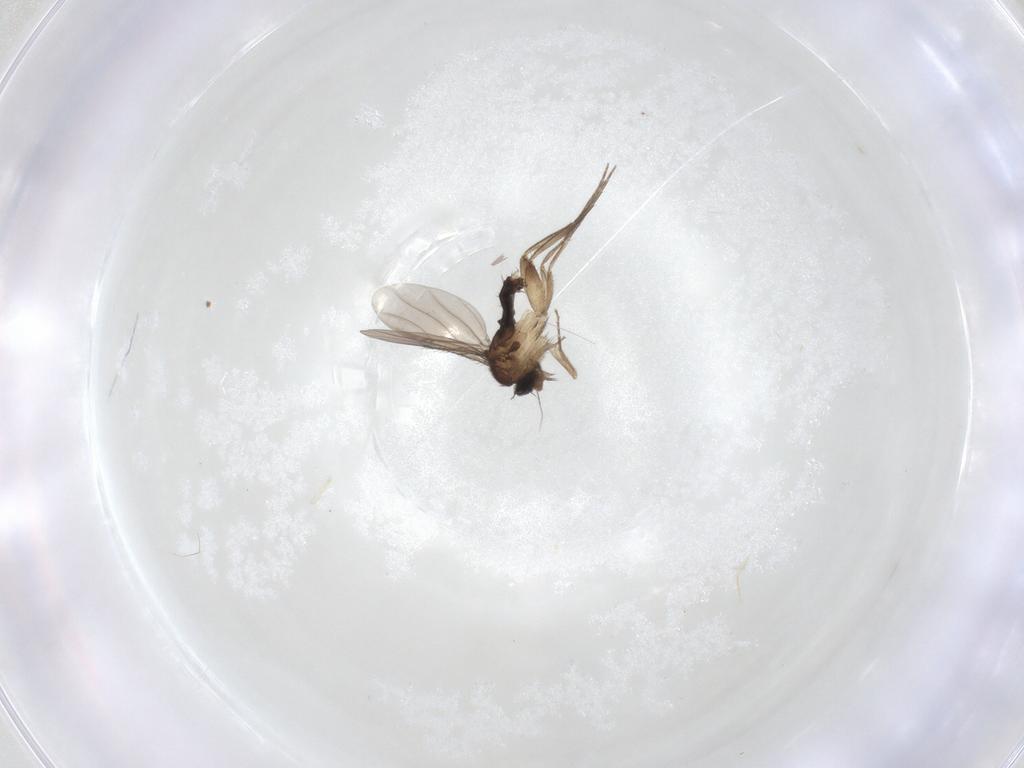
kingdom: Animalia
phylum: Arthropoda
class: Insecta
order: Diptera
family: Phoridae
